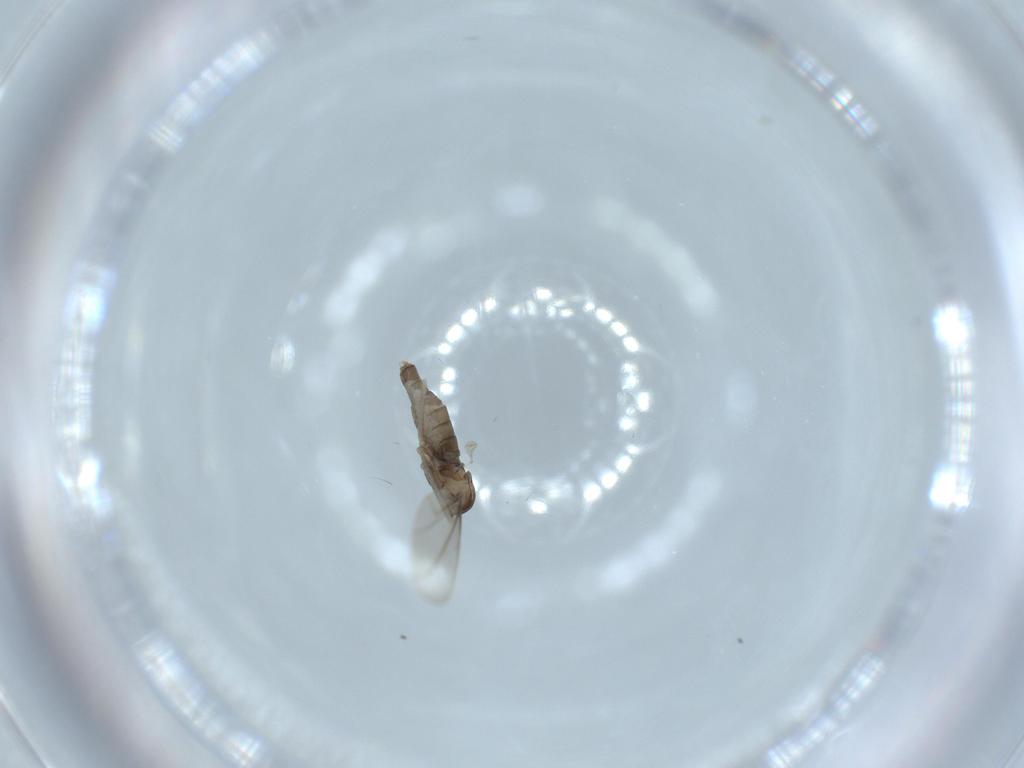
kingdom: Animalia
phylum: Arthropoda
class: Insecta
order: Diptera
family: Cecidomyiidae
